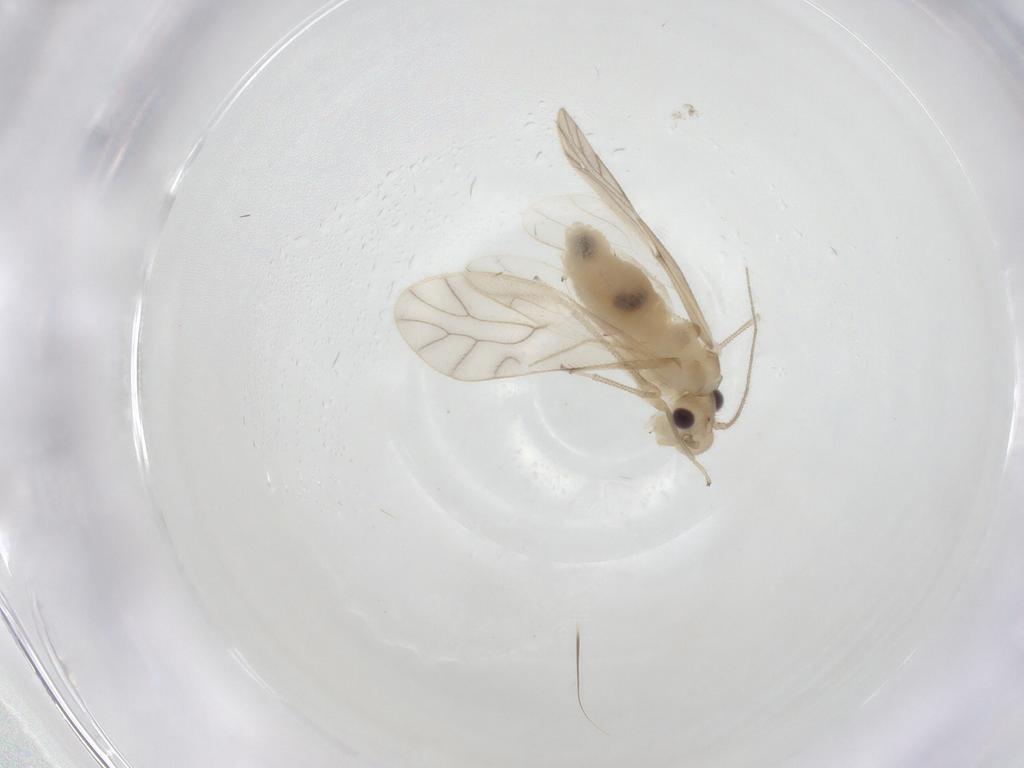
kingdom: Animalia
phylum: Arthropoda
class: Insecta
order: Psocodea
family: Caeciliusidae
